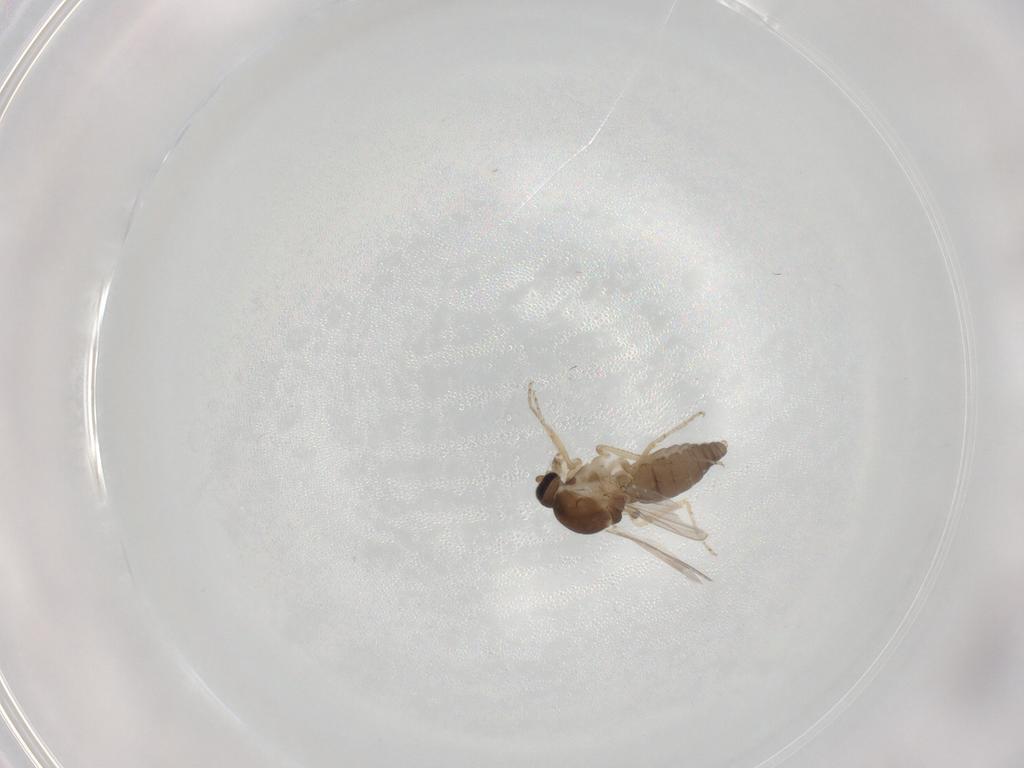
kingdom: Animalia
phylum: Arthropoda
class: Insecta
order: Diptera
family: Ceratopogonidae
